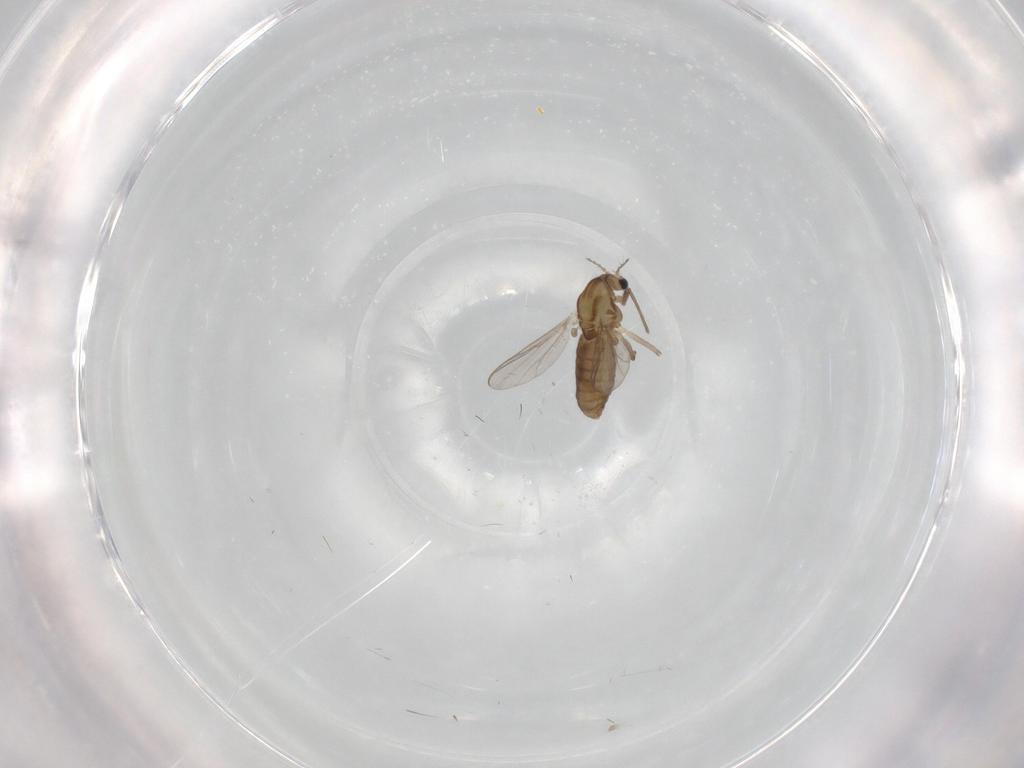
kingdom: Animalia
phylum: Arthropoda
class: Insecta
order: Diptera
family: Chironomidae
